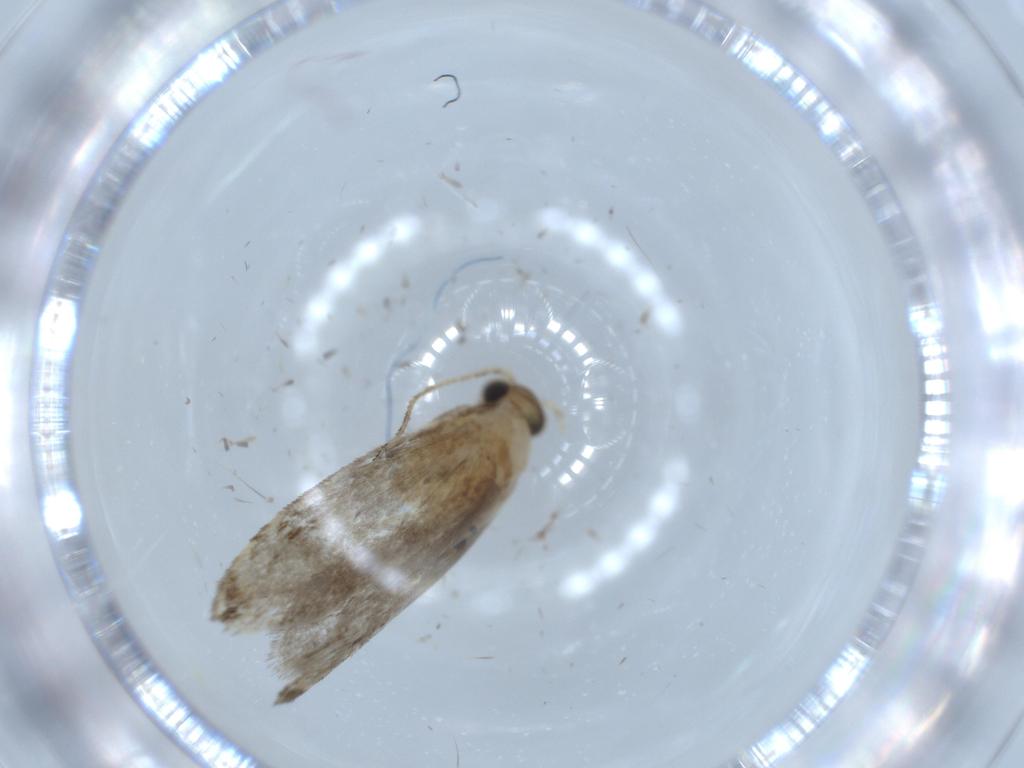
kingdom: Animalia
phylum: Arthropoda
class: Insecta
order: Lepidoptera
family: Tineidae
